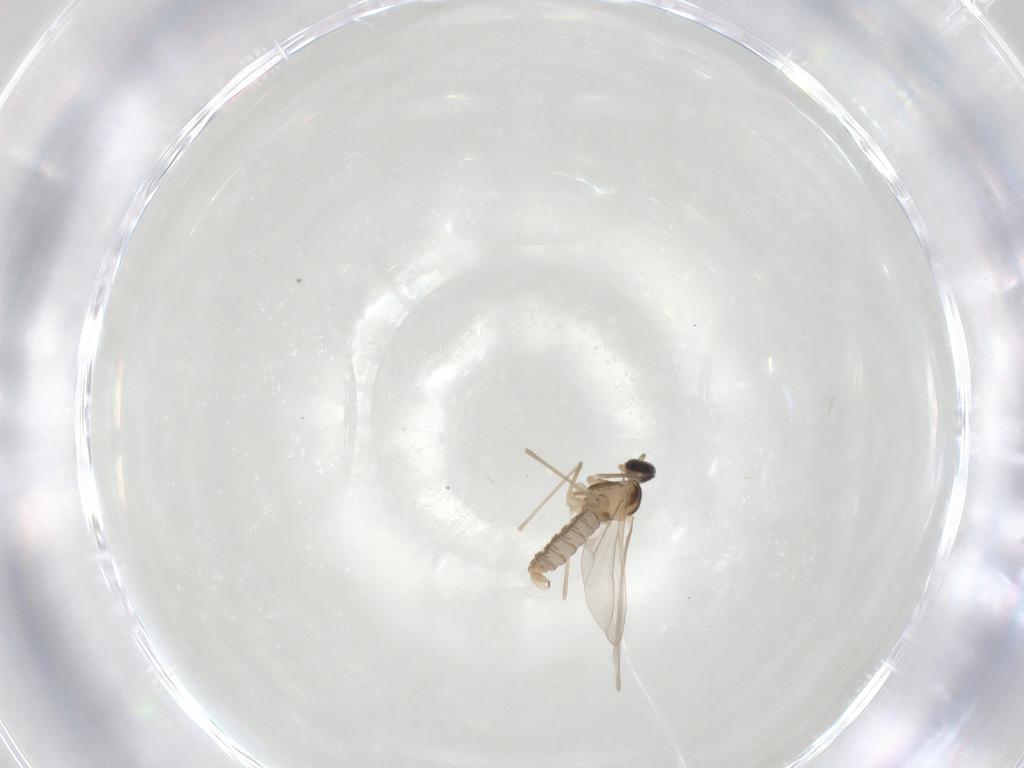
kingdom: Animalia
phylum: Arthropoda
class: Insecta
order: Diptera
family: Cecidomyiidae
